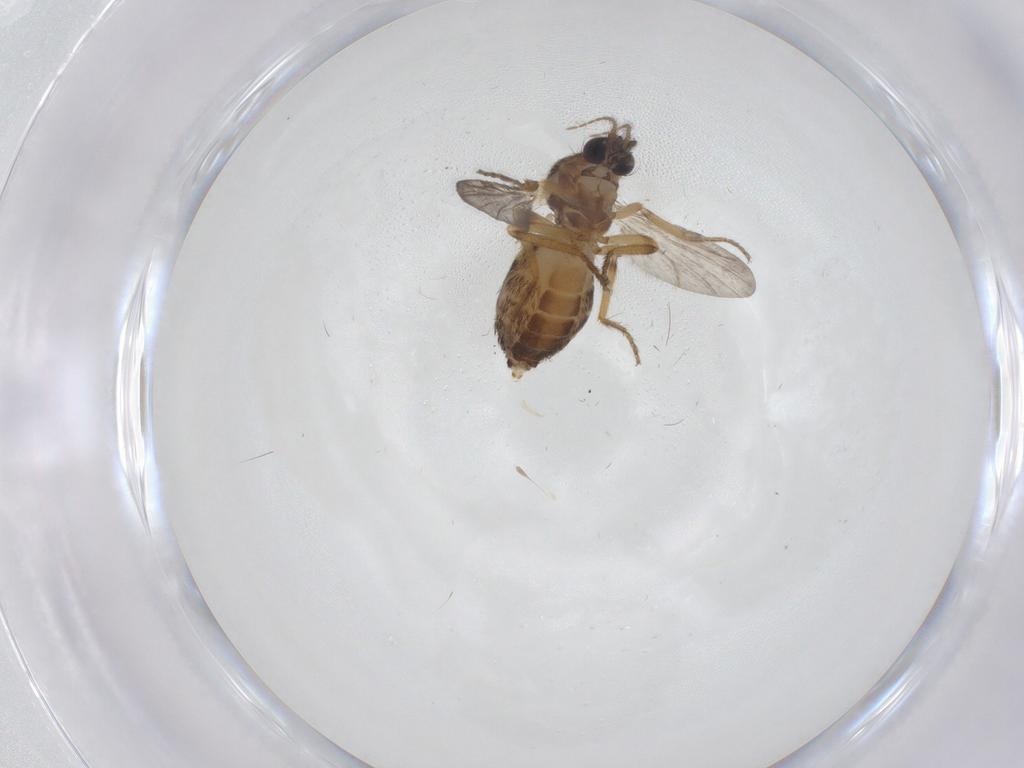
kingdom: Animalia
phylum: Arthropoda
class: Insecta
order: Diptera
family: Ceratopogonidae
